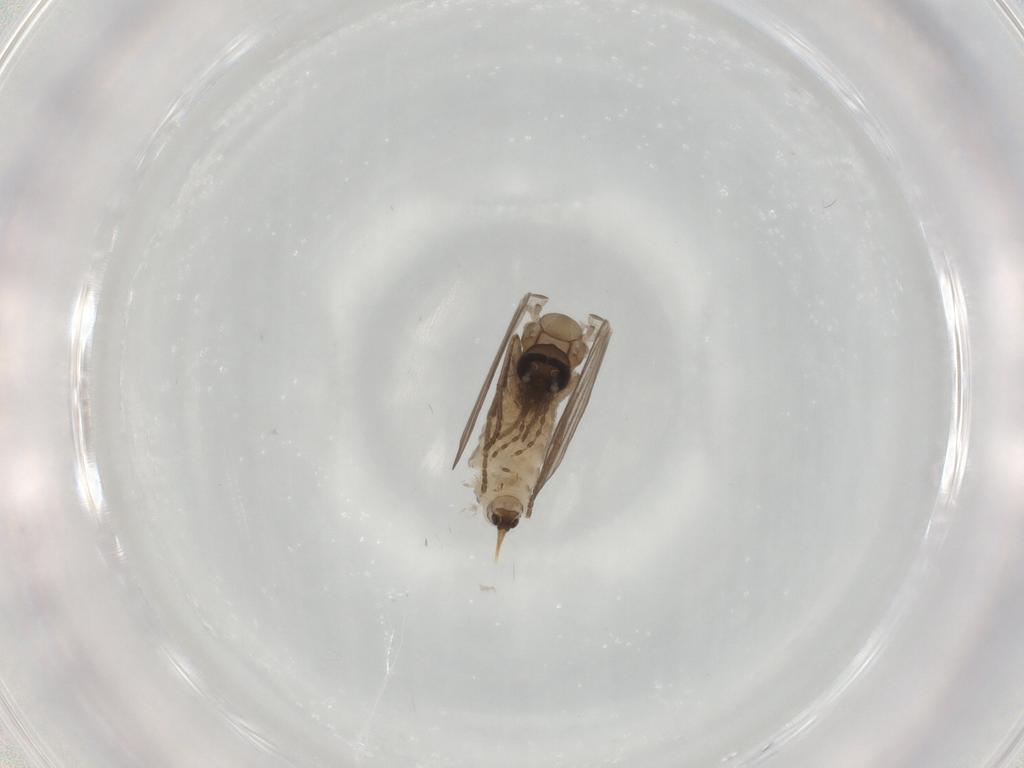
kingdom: Animalia
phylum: Arthropoda
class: Insecta
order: Diptera
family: Psychodidae
